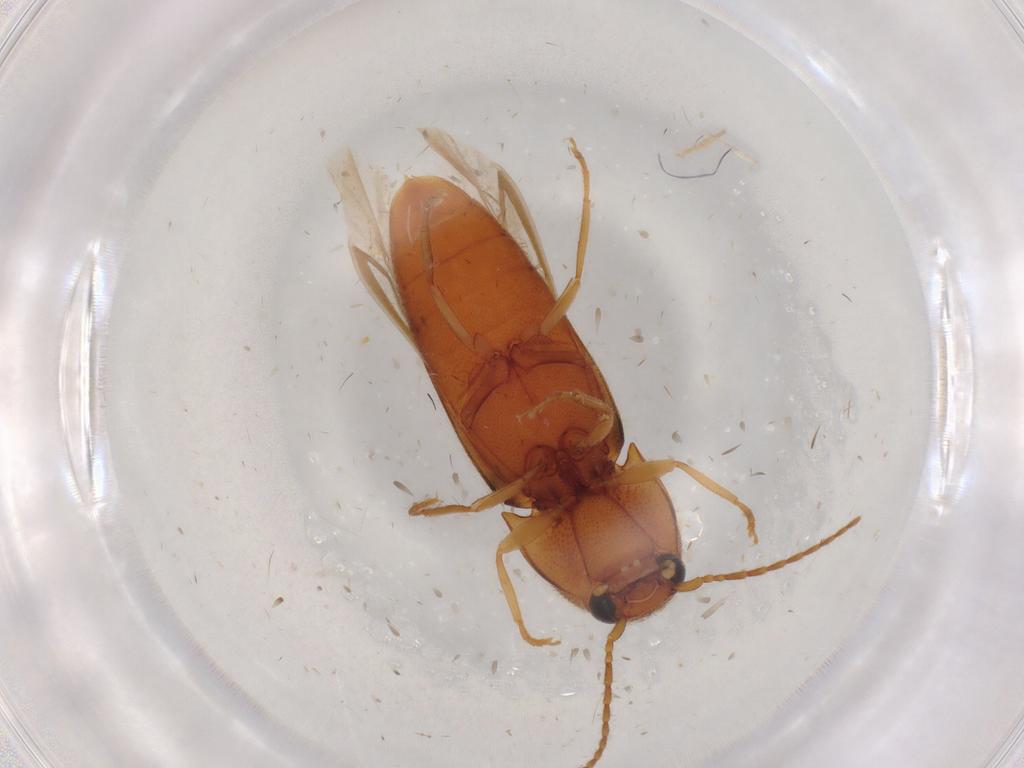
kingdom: Animalia
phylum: Arthropoda
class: Insecta
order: Coleoptera
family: Elateridae
